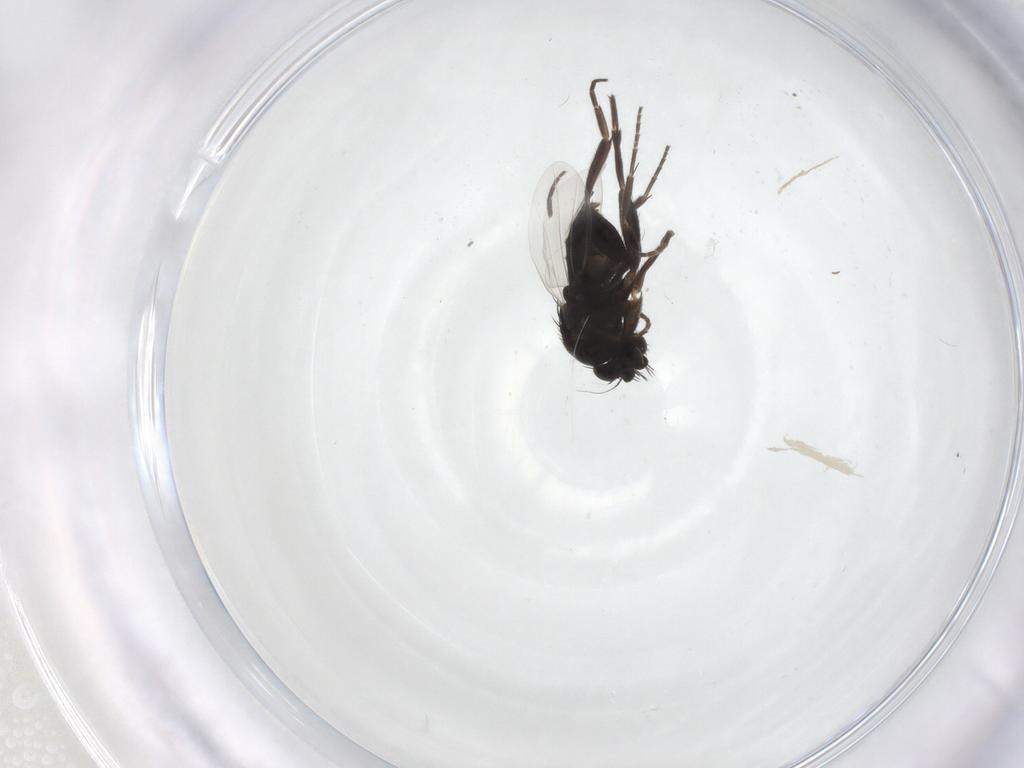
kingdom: Animalia
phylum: Arthropoda
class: Insecta
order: Diptera
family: Phoridae
